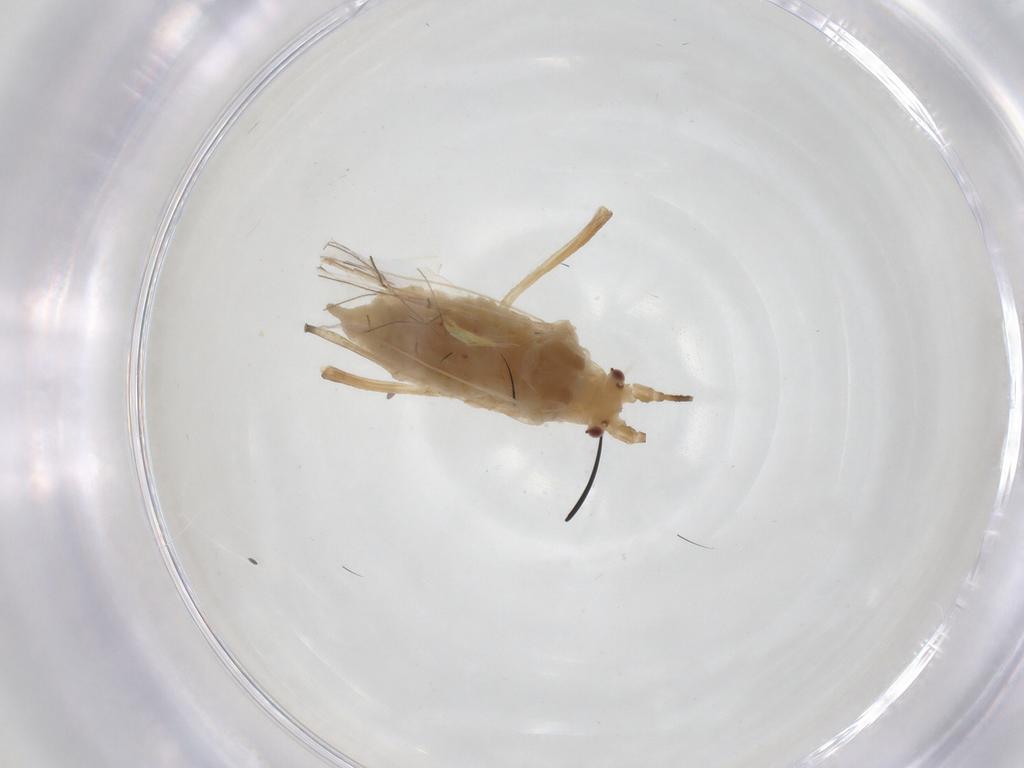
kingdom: Animalia
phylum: Arthropoda
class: Insecta
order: Hemiptera
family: Aphididae
